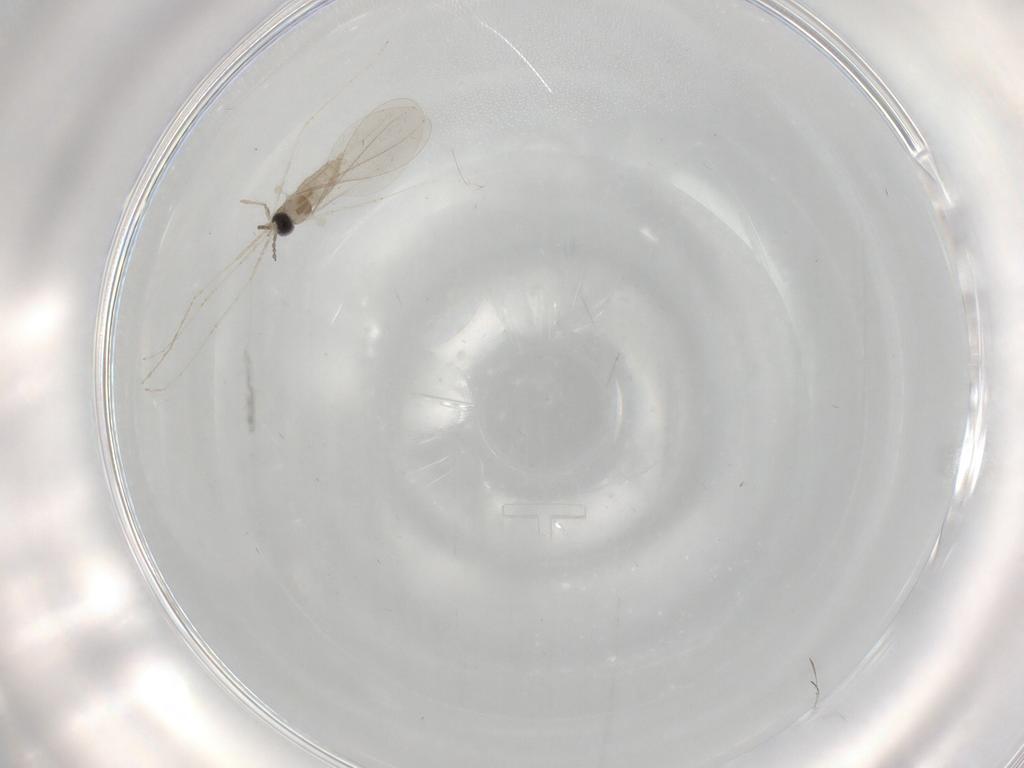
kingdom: Animalia
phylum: Arthropoda
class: Insecta
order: Diptera
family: Cecidomyiidae
